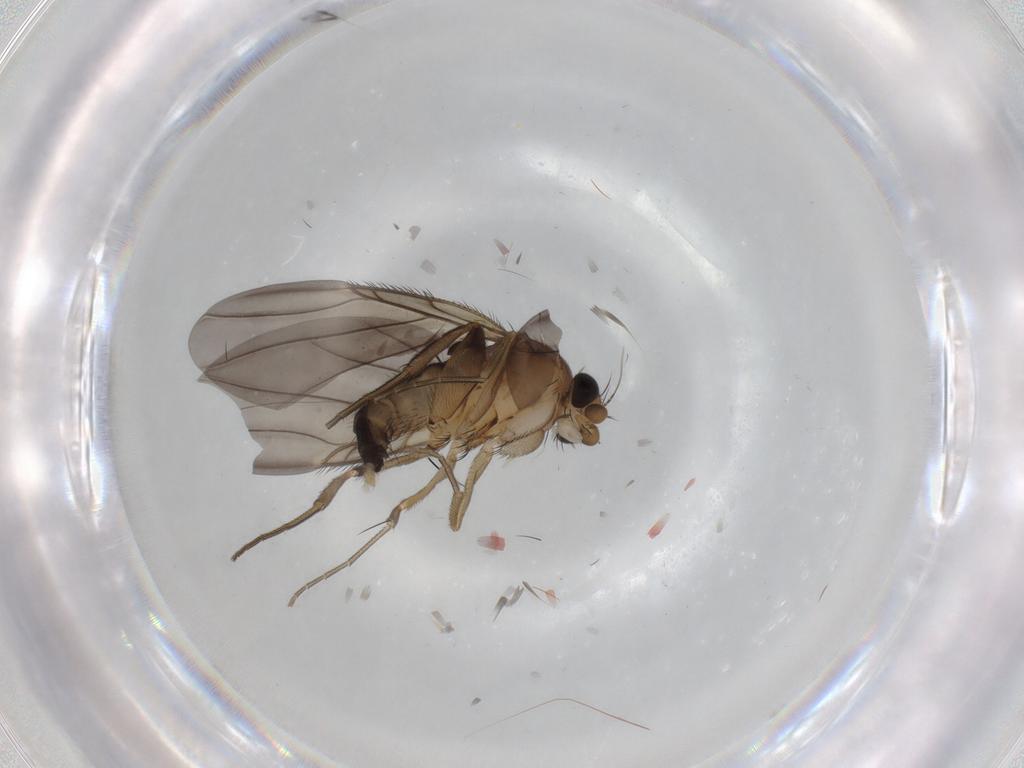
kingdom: Animalia
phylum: Arthropoda
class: Insecta
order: Diptera
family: Phoridae
